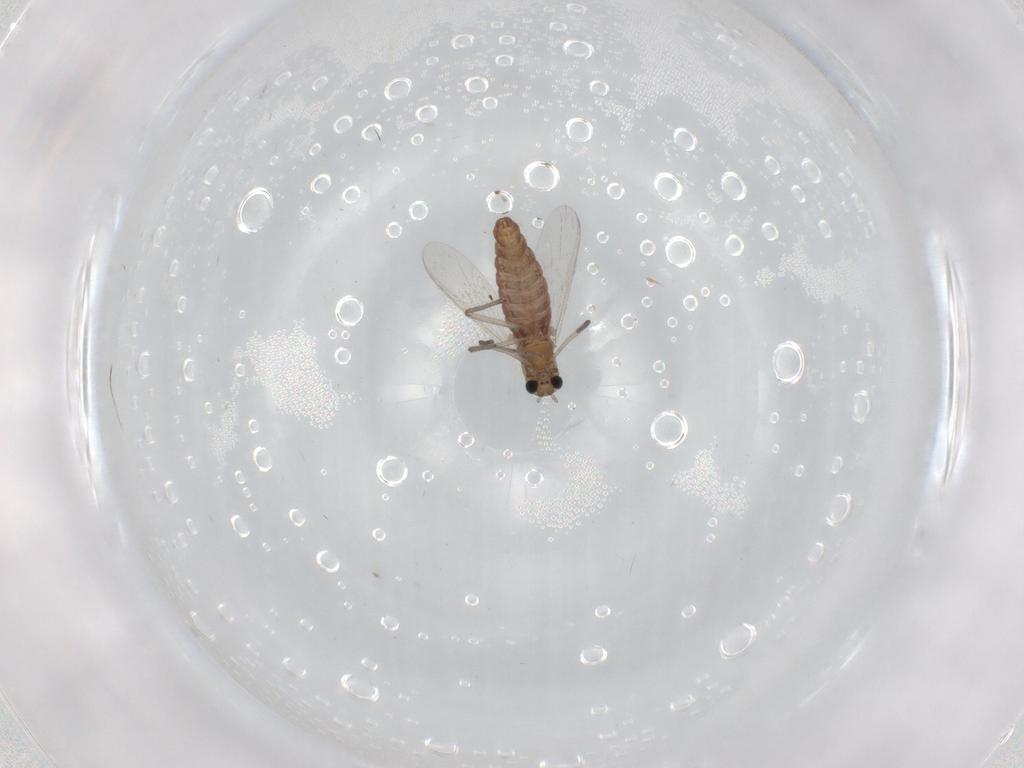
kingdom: Animalia
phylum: Arthropoda
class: Insecta
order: Diptera
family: Chironomidae
